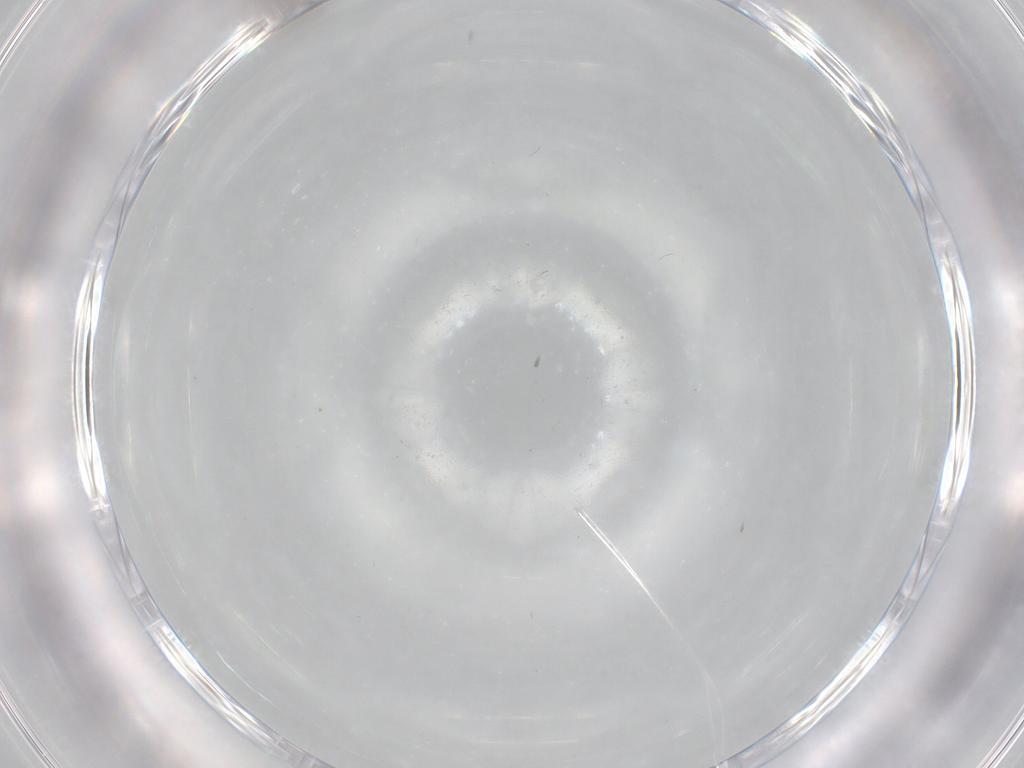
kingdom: Animalia
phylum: Arthropoda
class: Insecta
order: Diptera
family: Cecidomyiidae
